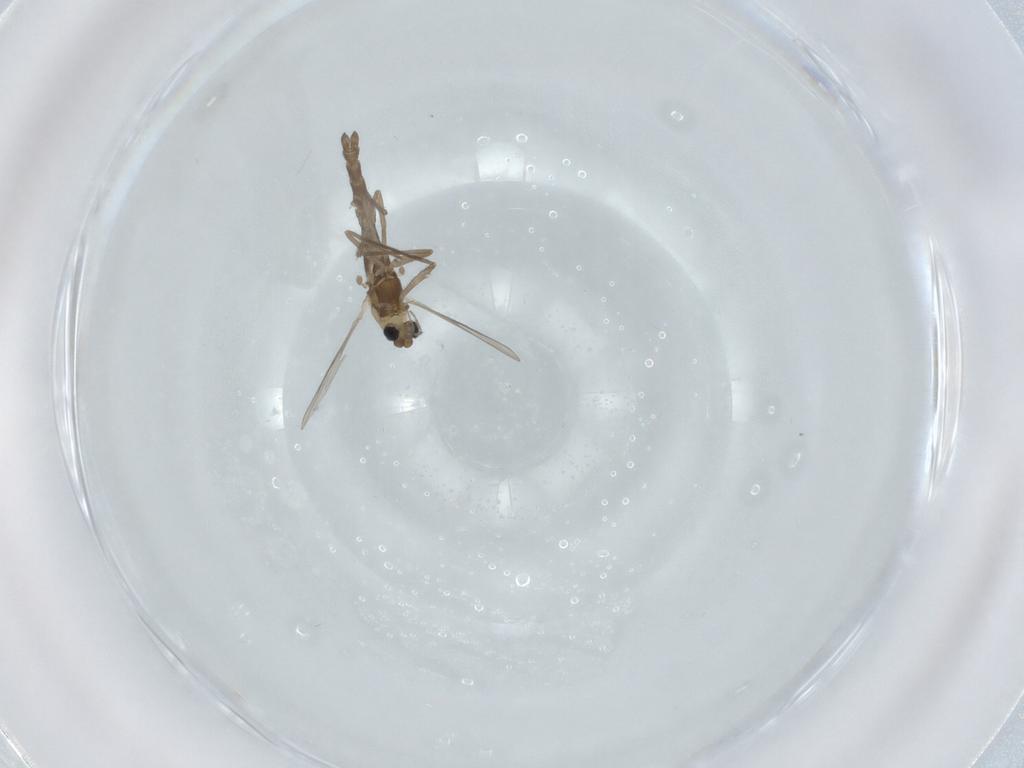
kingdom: Animalia
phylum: Arthropoda
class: Insecta
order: Diptera
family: Chironomidae
